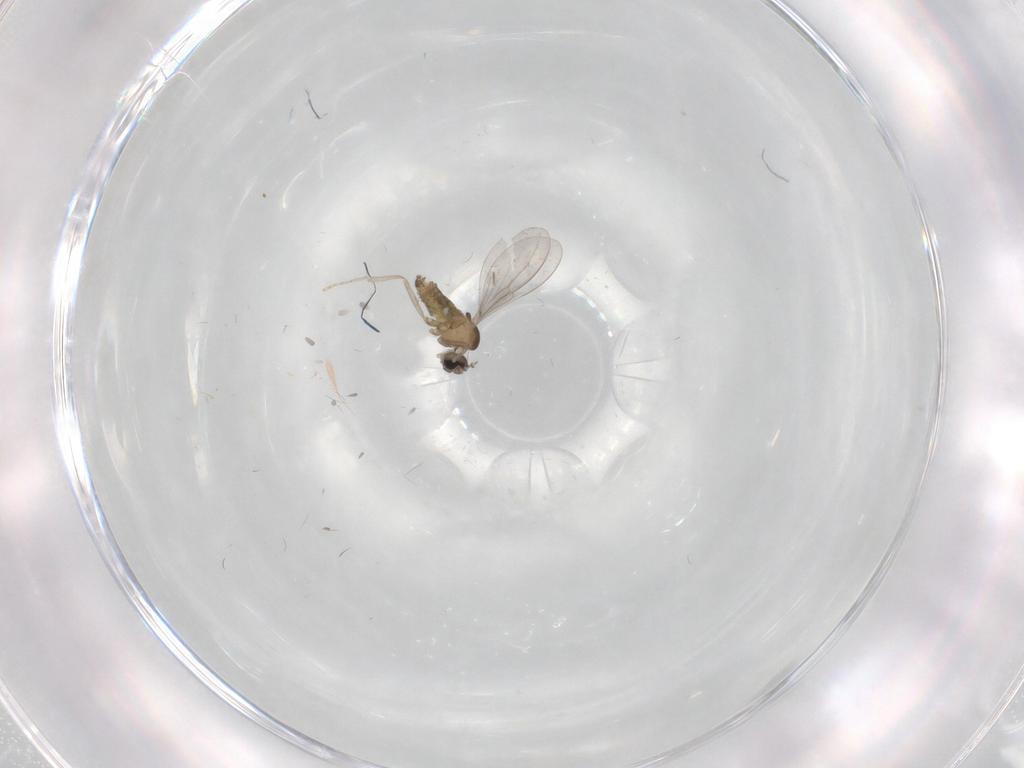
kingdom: Animalia
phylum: Arthropoda
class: Insecta
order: Diptera
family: Cecidomyiidae
